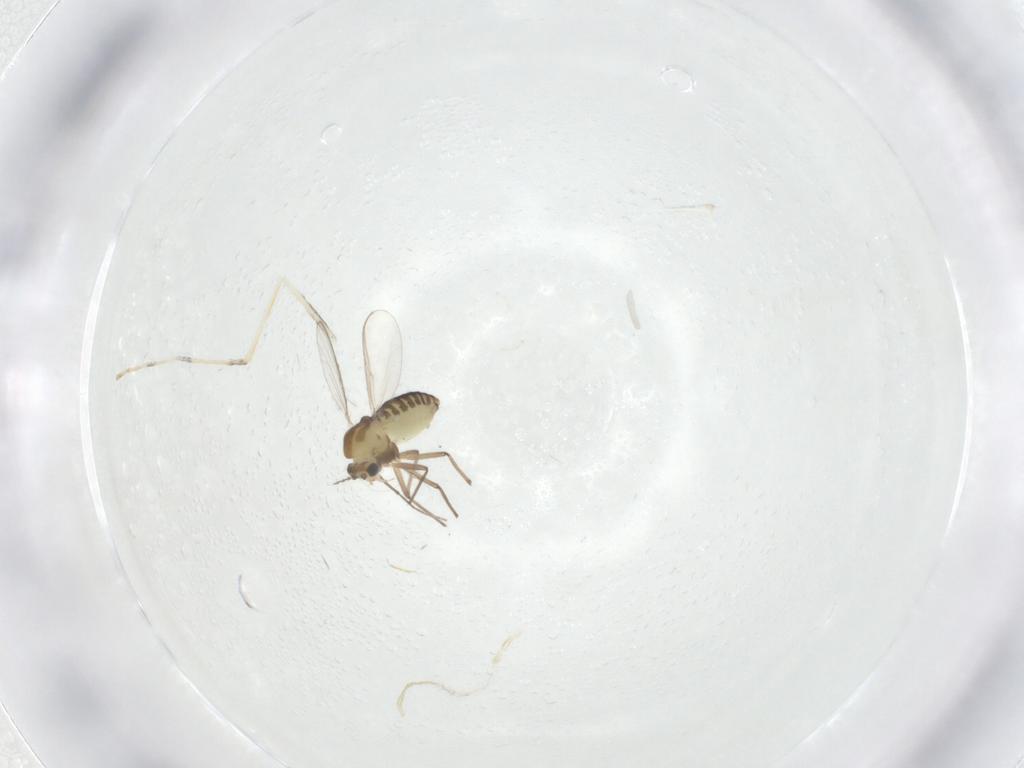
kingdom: Animalia
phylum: Arthropoda
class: Insecta
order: Diptera
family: Chironomidae
